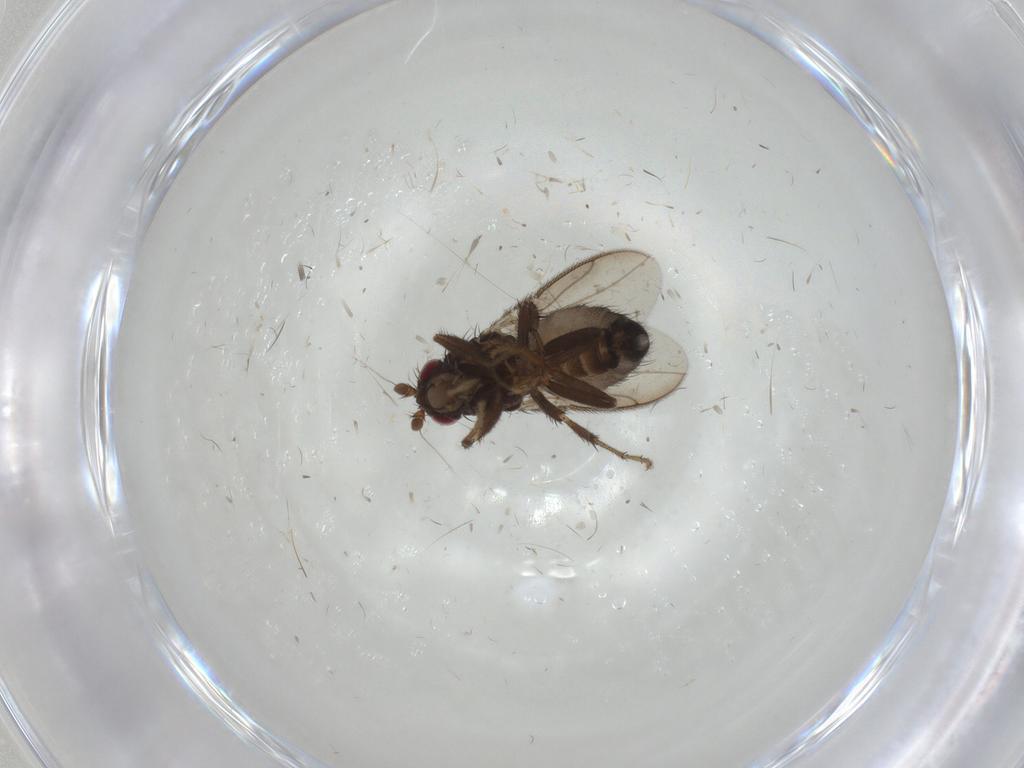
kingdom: Animalia
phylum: Arthropoda
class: Insecta
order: Diptera
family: Sphaeroceridae
